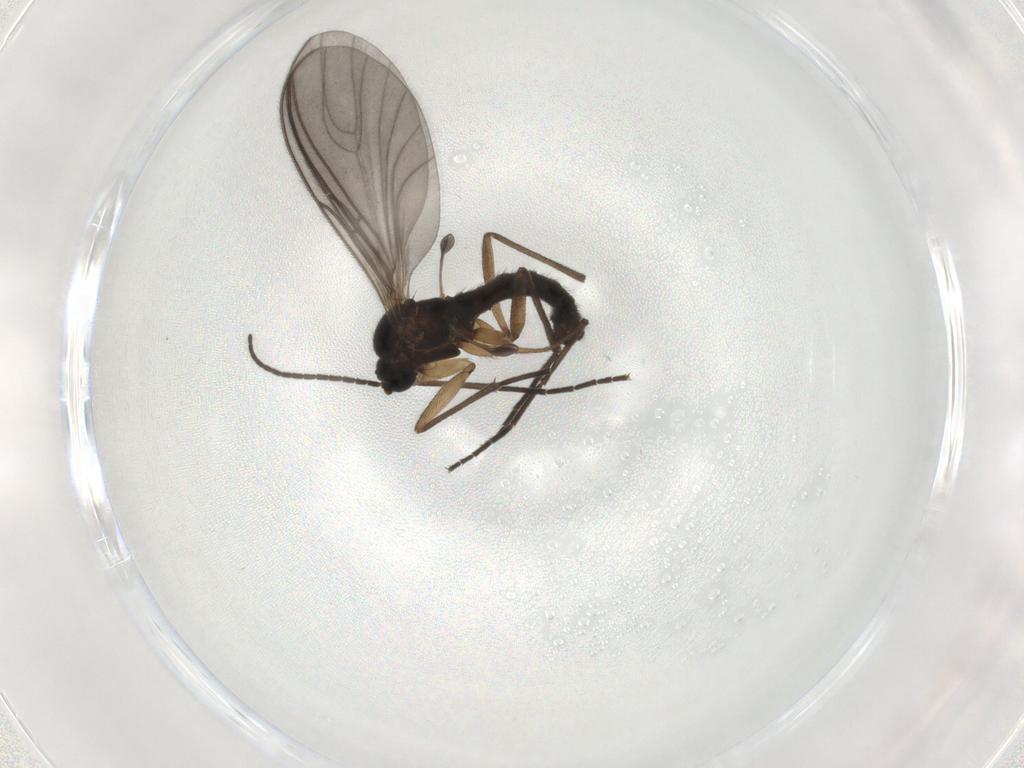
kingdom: Animalia
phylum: Arthropoda
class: Insecta
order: Diptera
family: Sciaridae
